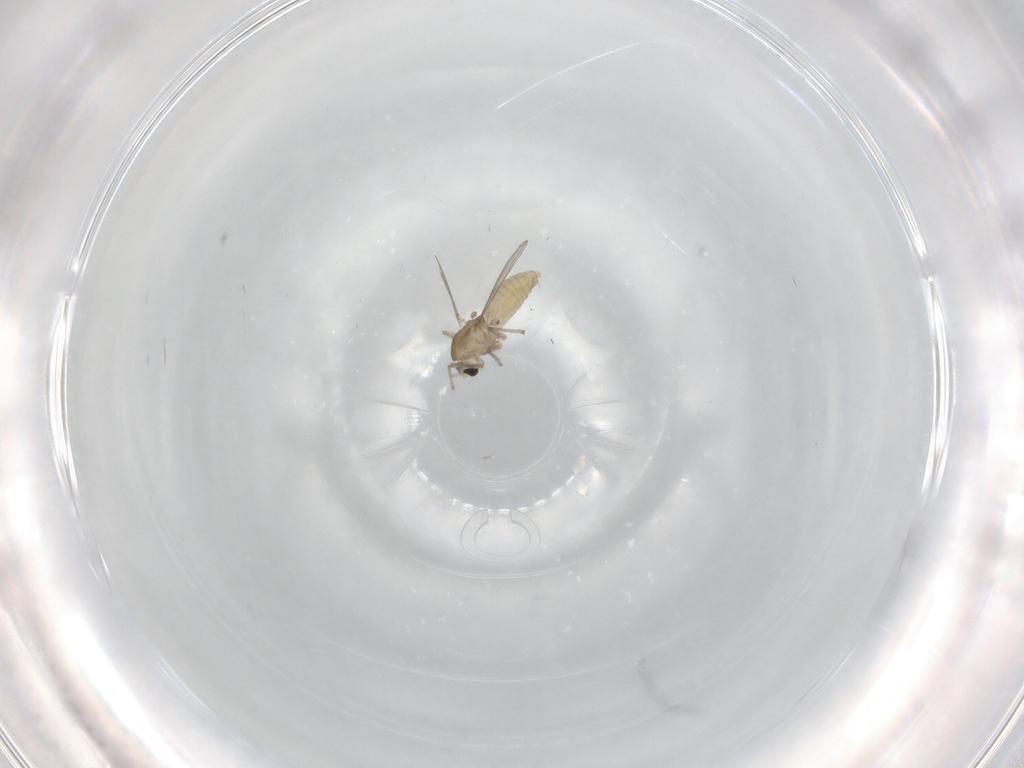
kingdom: Animalia
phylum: Arthropoda
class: Insecta
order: Diptera
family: Chironomidae
